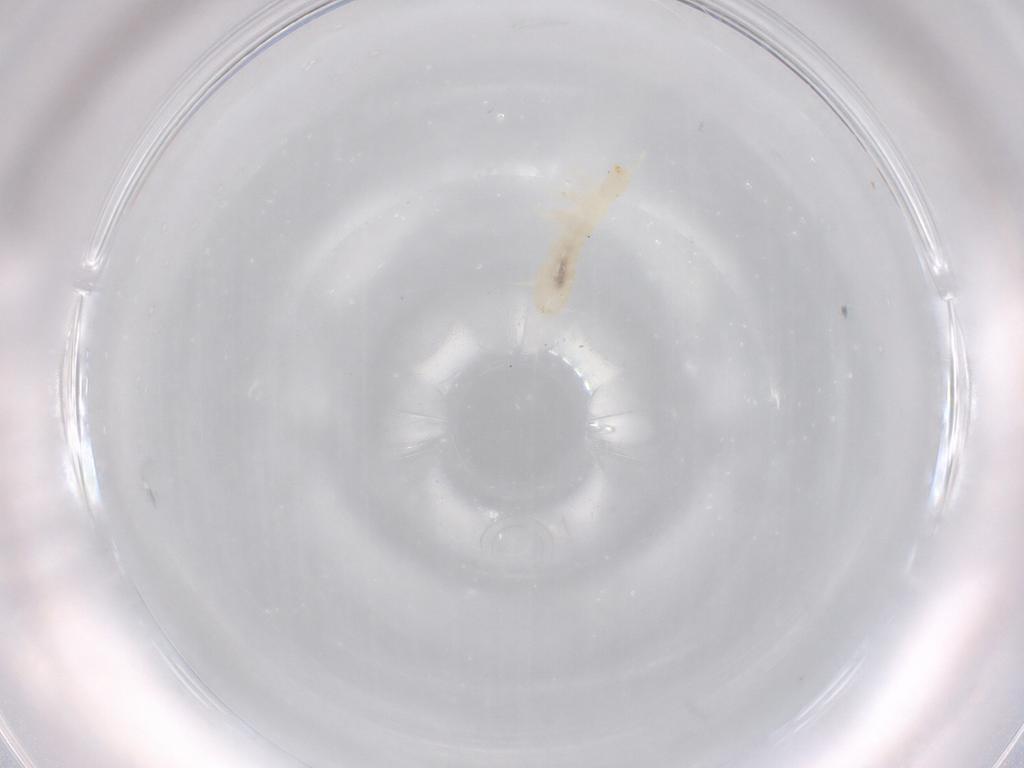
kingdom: Animalia
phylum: Arthropoda
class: Collembola
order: Entomobryomorpha
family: Isotomidae
